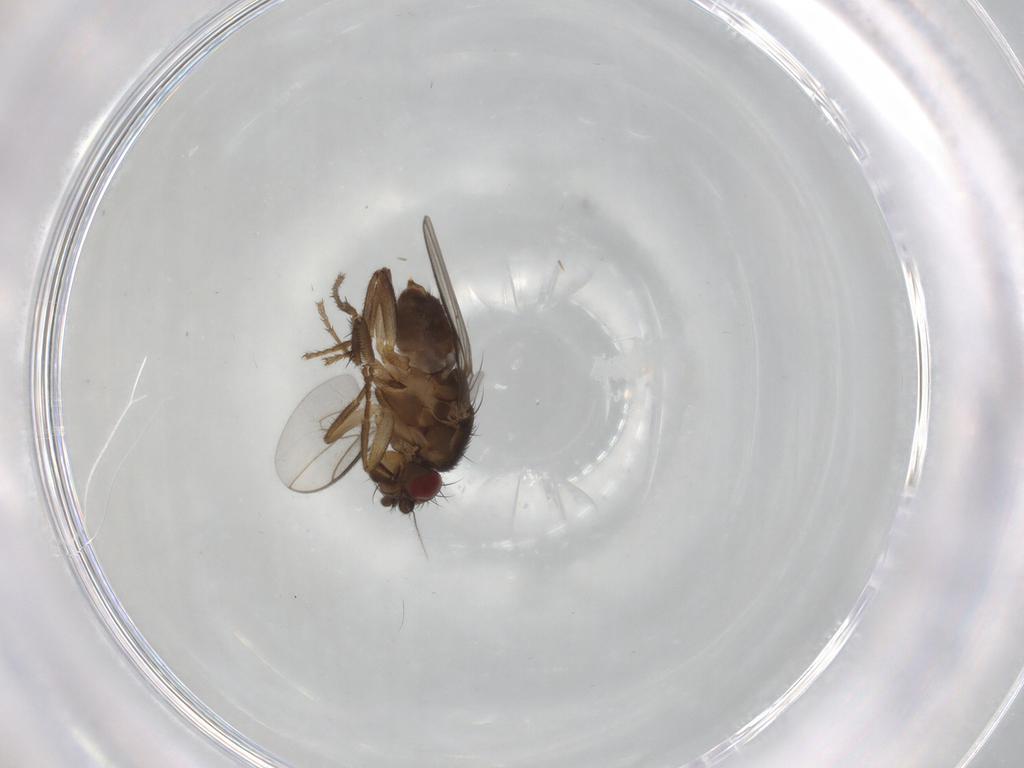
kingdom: Animalia
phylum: Arthropoda
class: Insecta
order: Diptera
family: Sphaeroceridae
